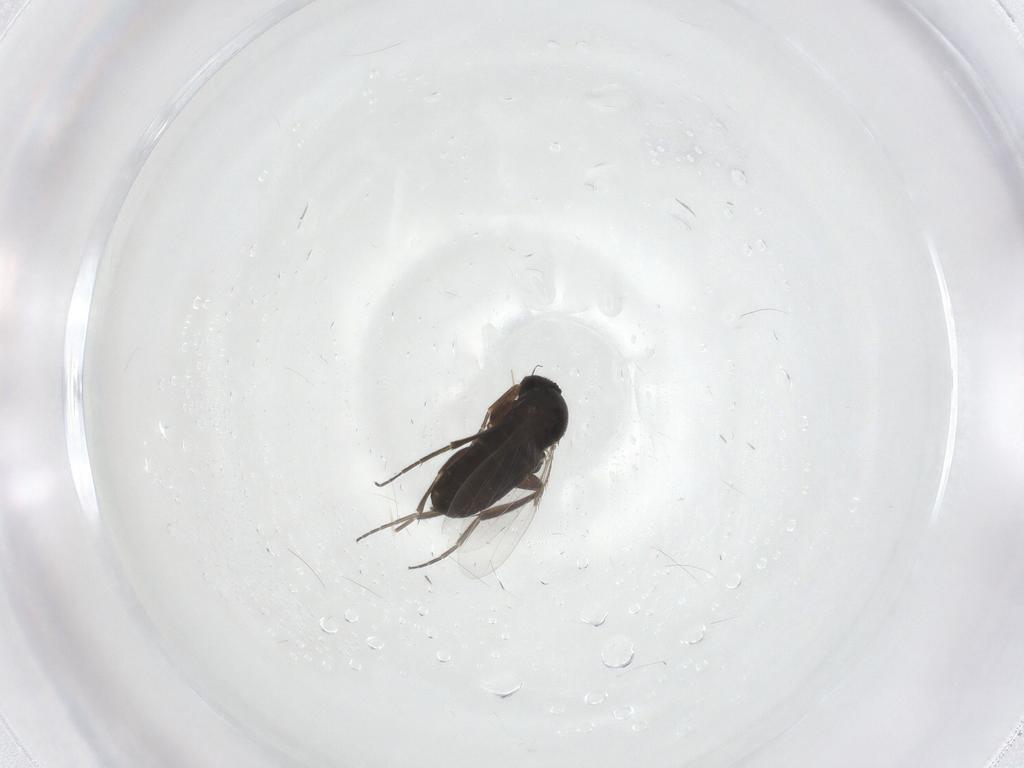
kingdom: Animalia
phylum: Arthropoda
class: Insecta
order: Diptera
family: Phoridae
